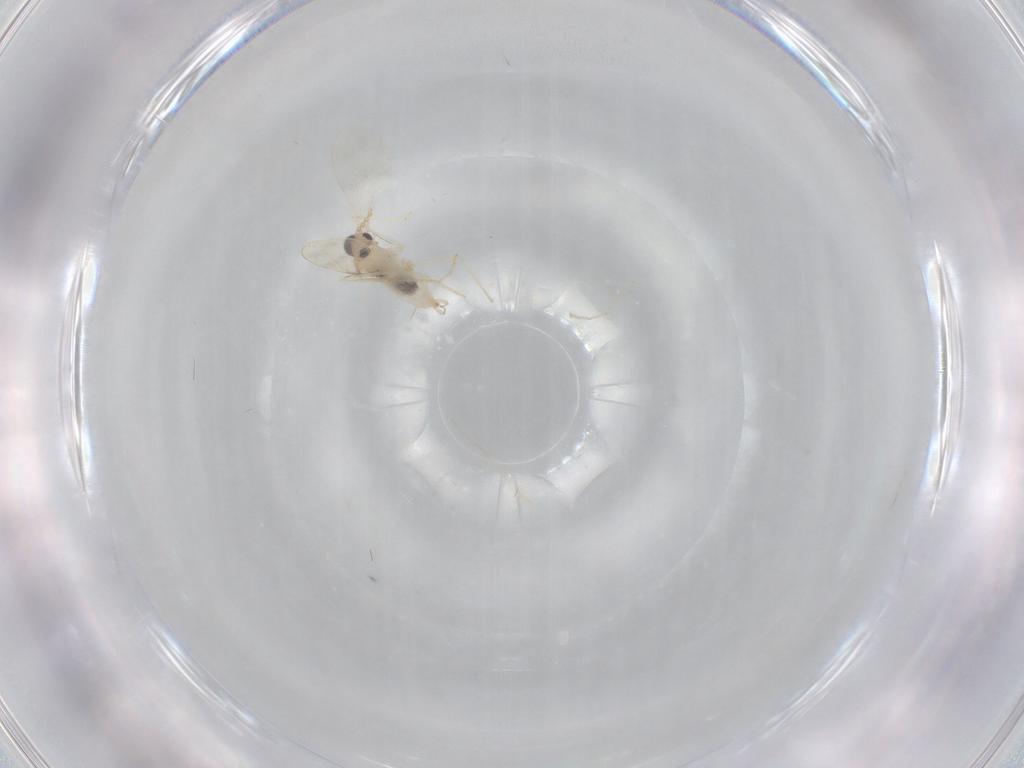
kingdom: Animalia
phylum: Arthropoda
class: Insecta
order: Diptera
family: Cecidomyiidae
